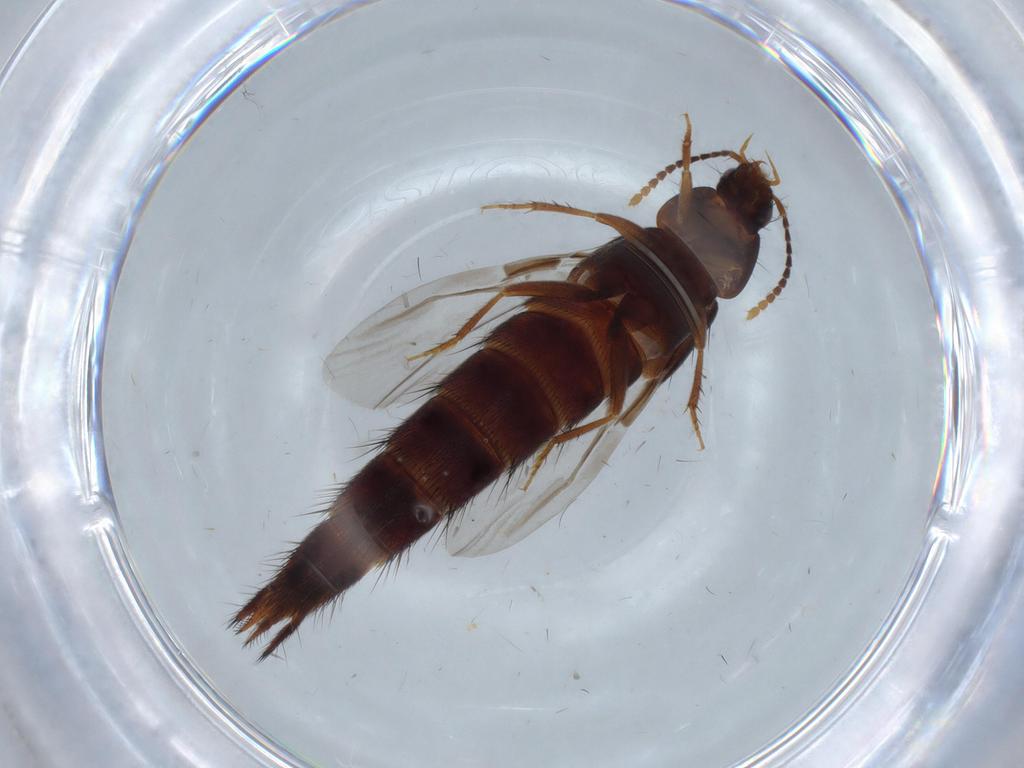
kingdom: Animalia
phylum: Arthropoda
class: Insecta
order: Coleoptera
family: Staphylinidae
